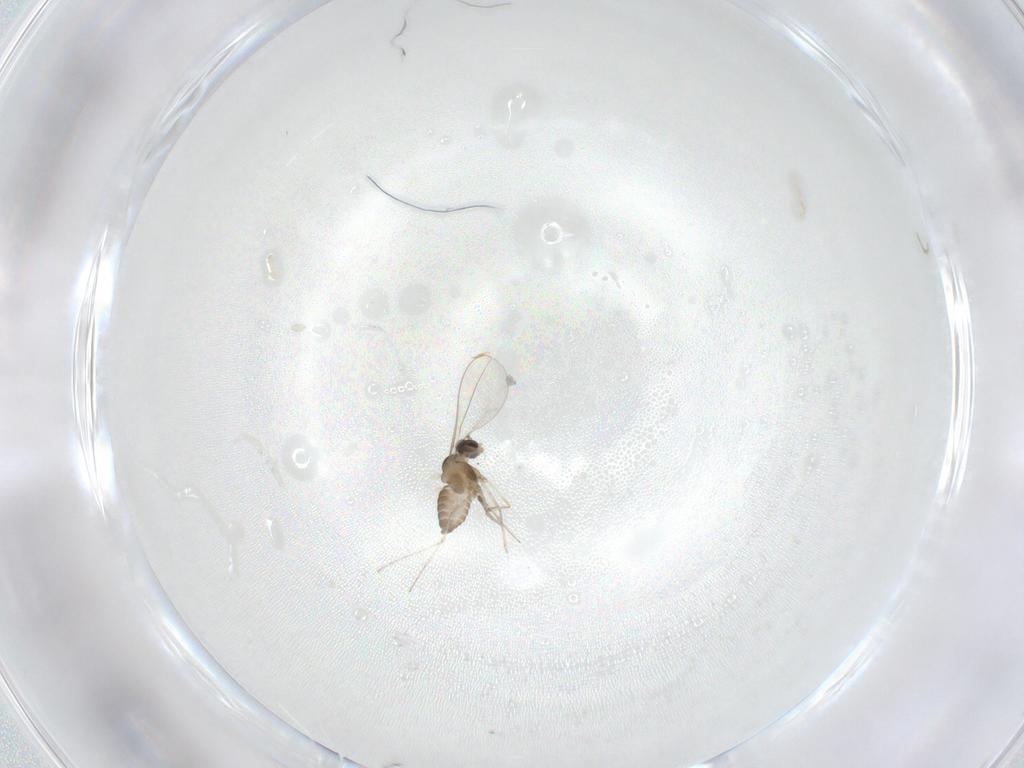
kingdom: Animalia
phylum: Arthropoda
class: Insecta
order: Diptera
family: Cecidomyiidae
